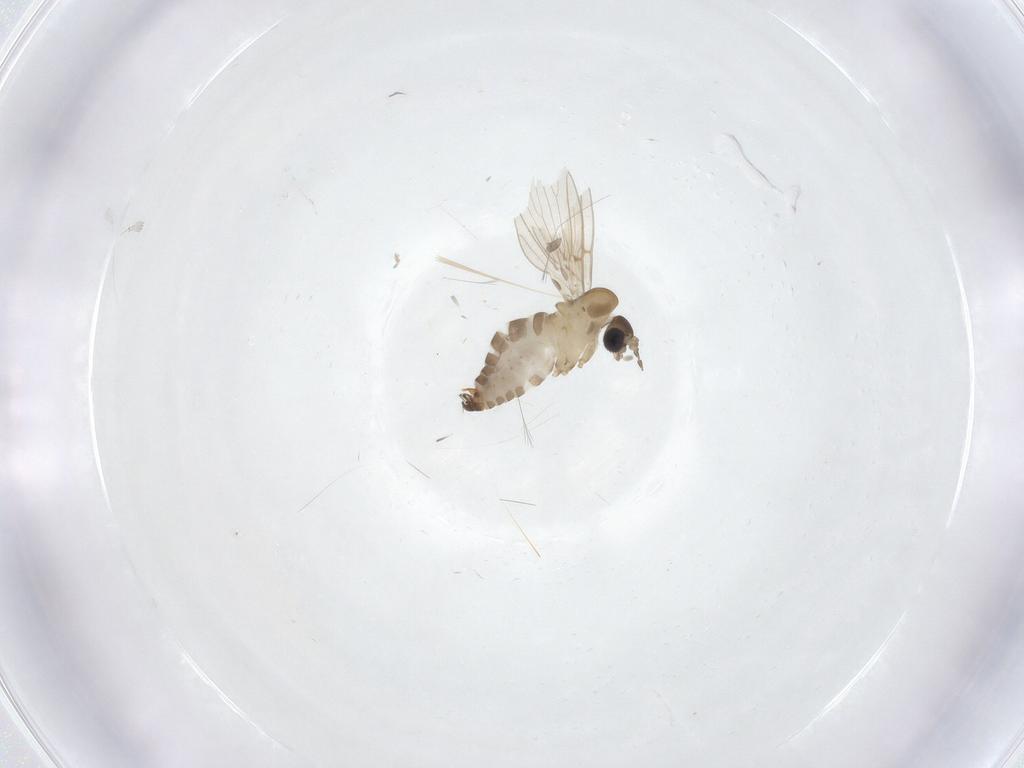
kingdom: Animalia
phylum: Arthropoda
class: Insecta
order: Diptera
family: Psychodidae
